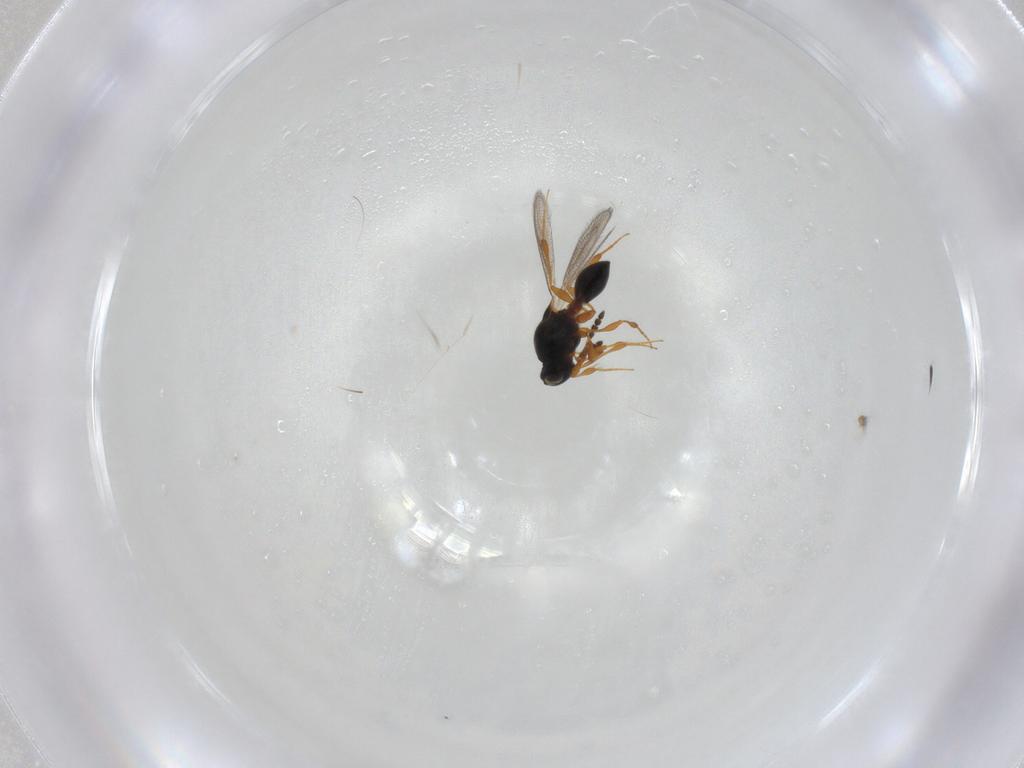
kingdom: Animalia
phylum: Arthropoda
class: Insecta
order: Hymenoptera
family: Platygastridae
